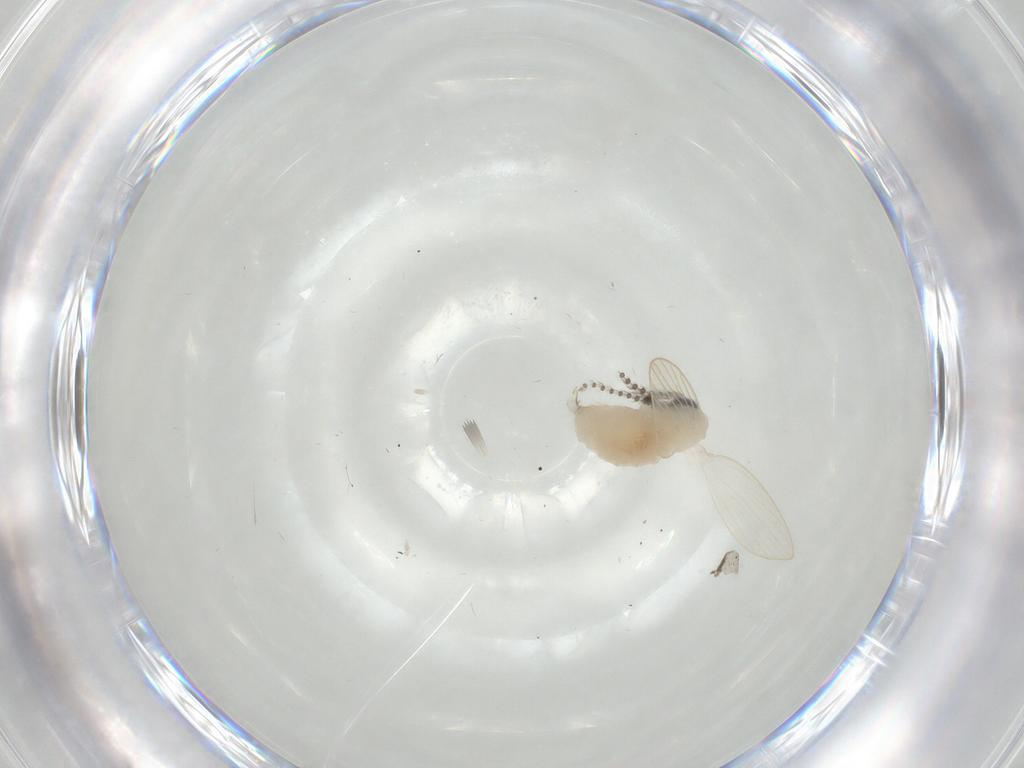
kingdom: Animalia
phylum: Arthropoda
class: Insecta
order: Diptera
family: Psychodidae
